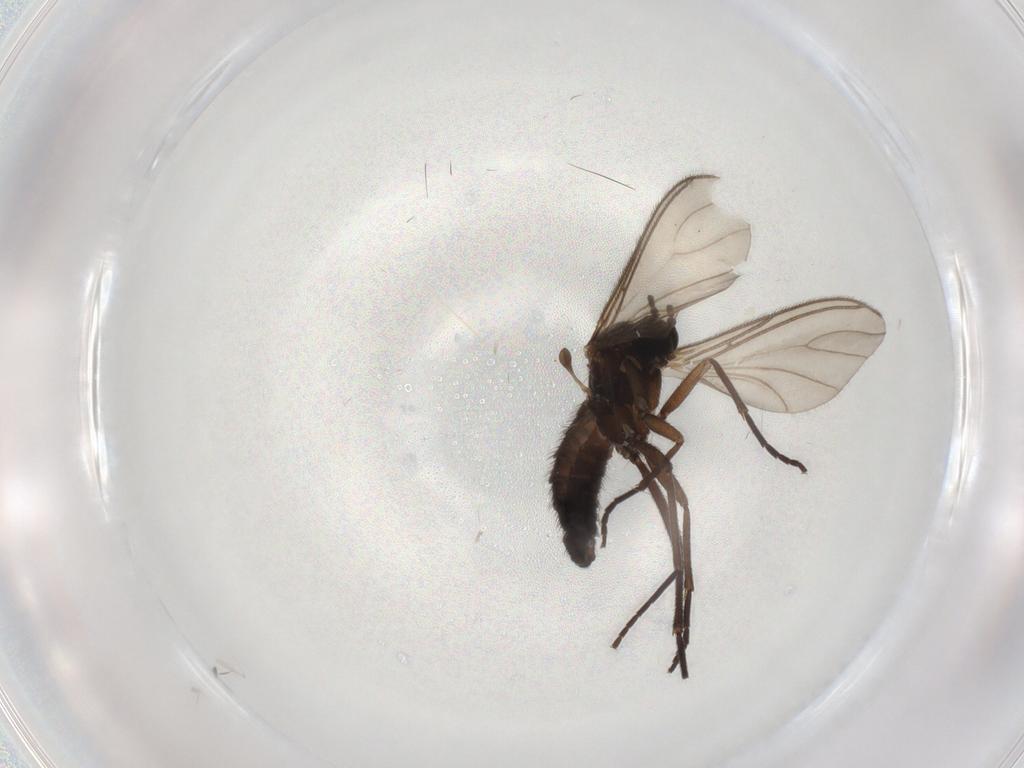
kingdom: Animalia
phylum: Arthropoda
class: Insecta
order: Diptera
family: Sciaridae
